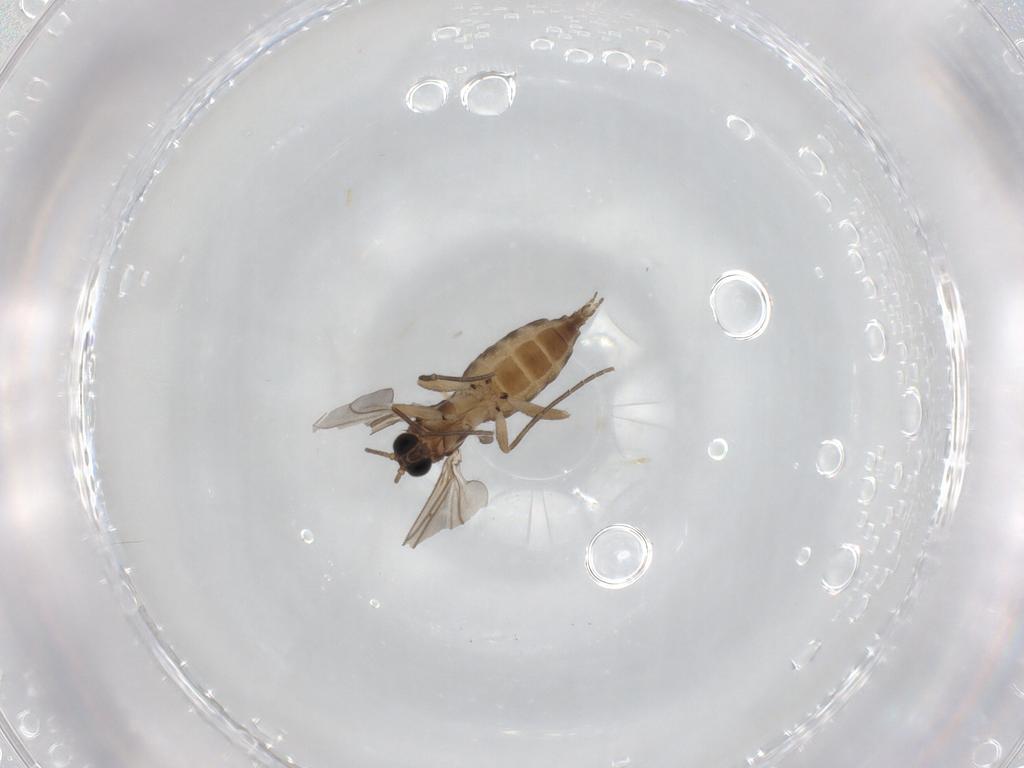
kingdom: Animalia
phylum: Arthropoda
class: Insecta
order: Diptera
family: Sciaridae
